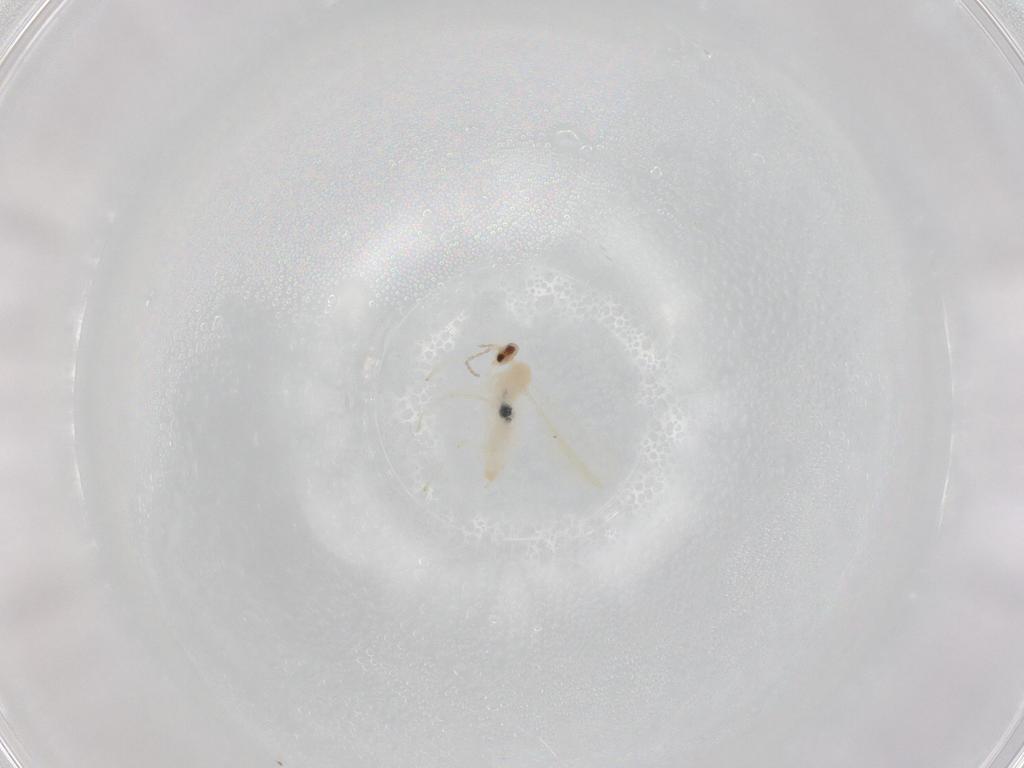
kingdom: Animalia
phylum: Arthropoda
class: Insecta
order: Diptera
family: Cecidomyiidae
